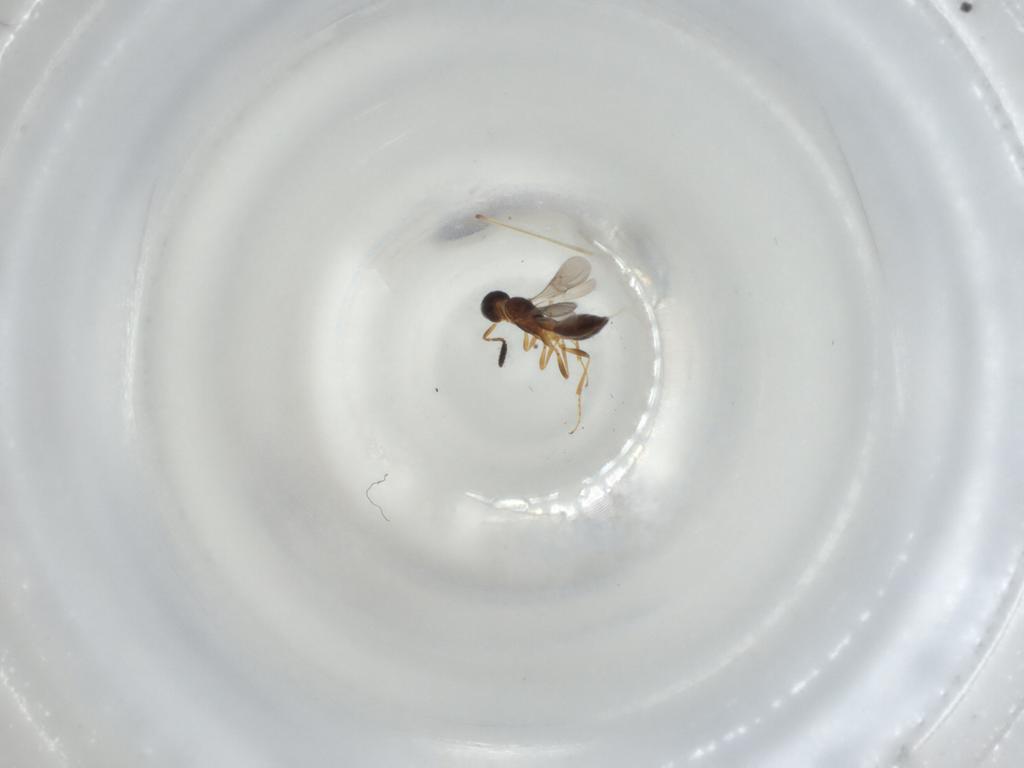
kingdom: Animalia
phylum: Arthropoda
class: Insecta
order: Hymenoptera
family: Scelionidae
